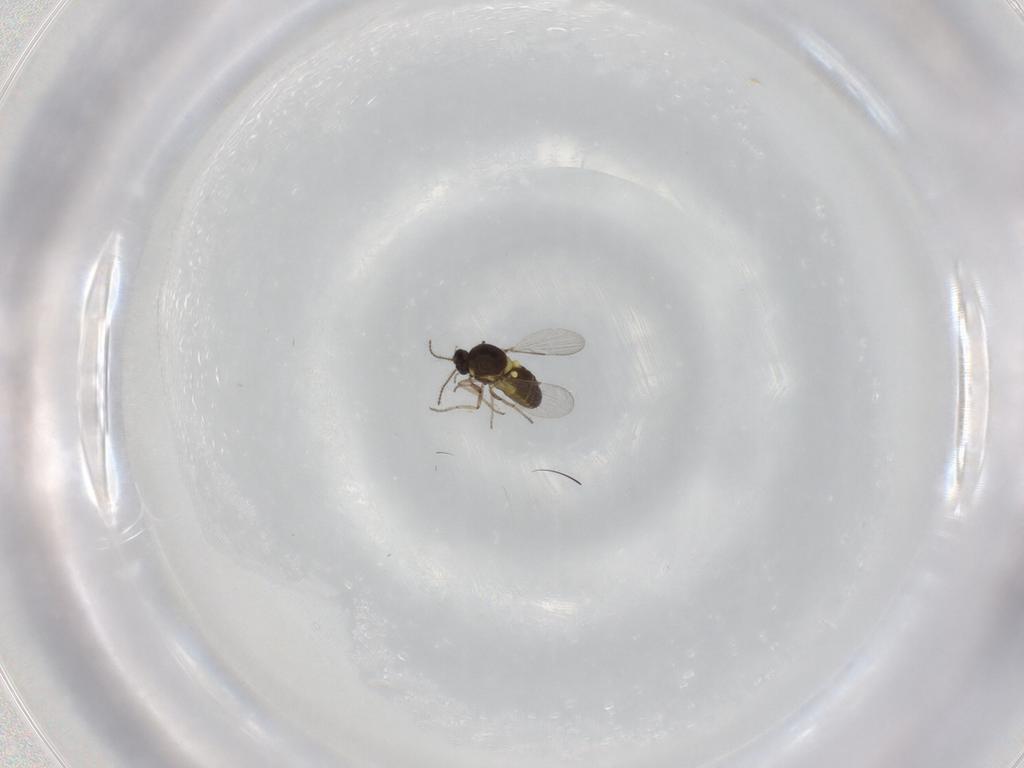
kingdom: Animalia
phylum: Arthropoda
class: Insecta
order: Diptera
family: Ceratopogonidae
